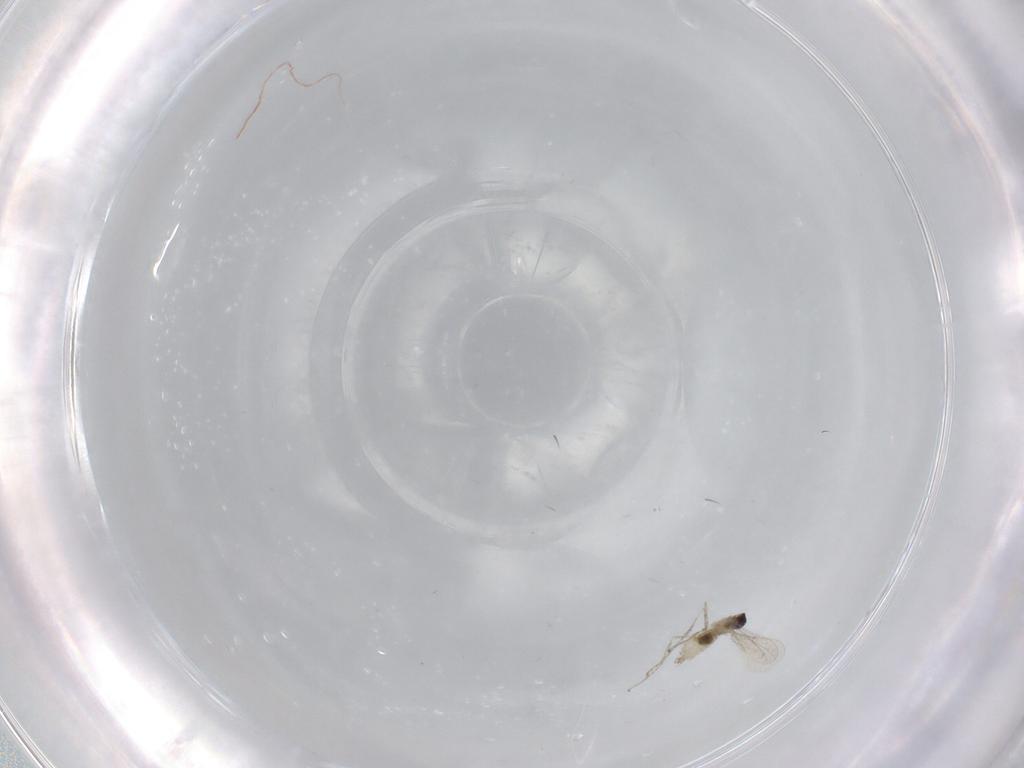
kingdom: Animalia
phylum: Arthropoda
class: Insecta
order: Diptera
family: Cecidomyiidae
